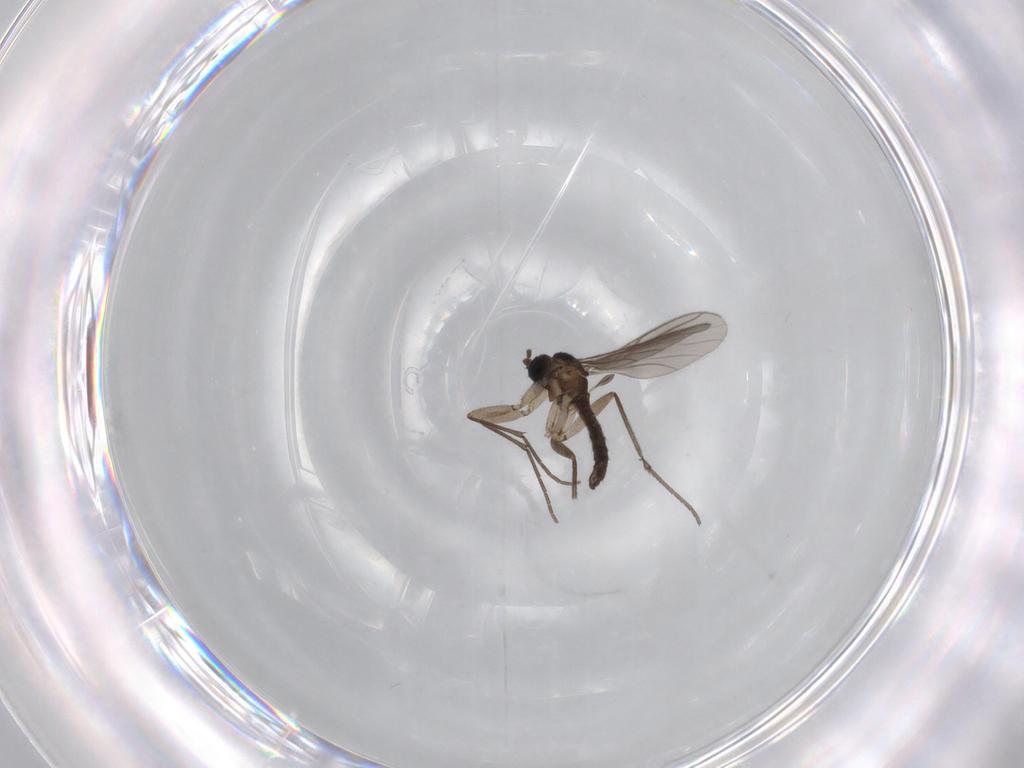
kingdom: Animalia
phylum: Arthropoda
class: Insecta
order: Diptera
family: Sciaridae
